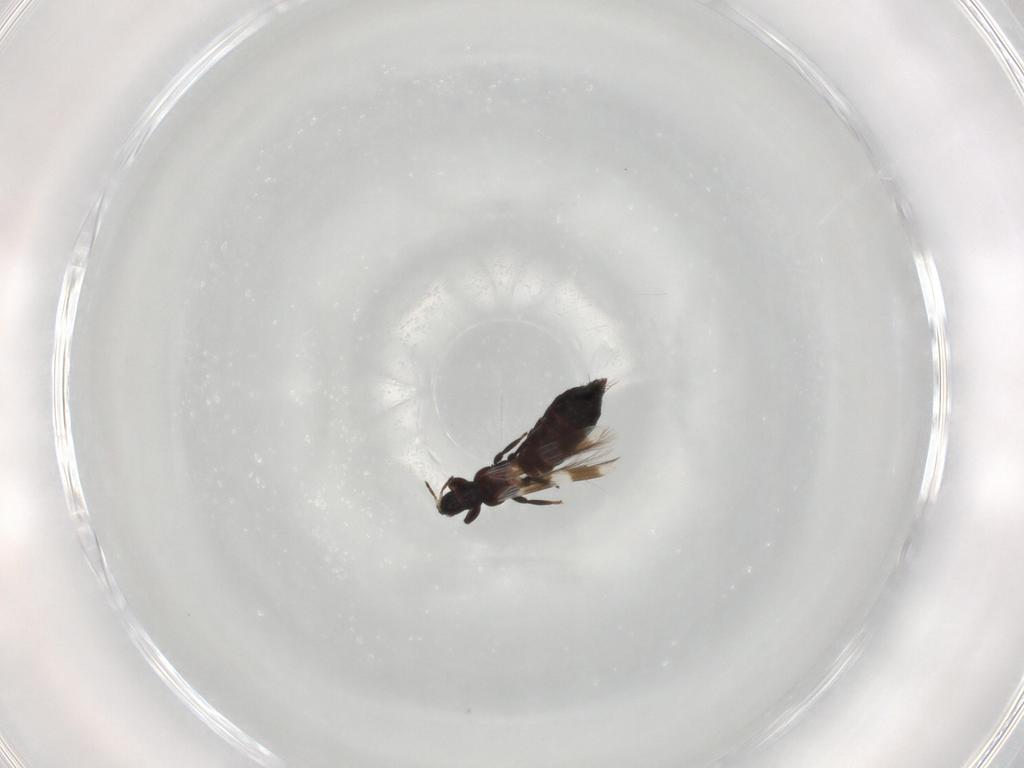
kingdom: Animalia
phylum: Arthropoda
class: Insecta
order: Thysanoptera
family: Aeolothripidae
